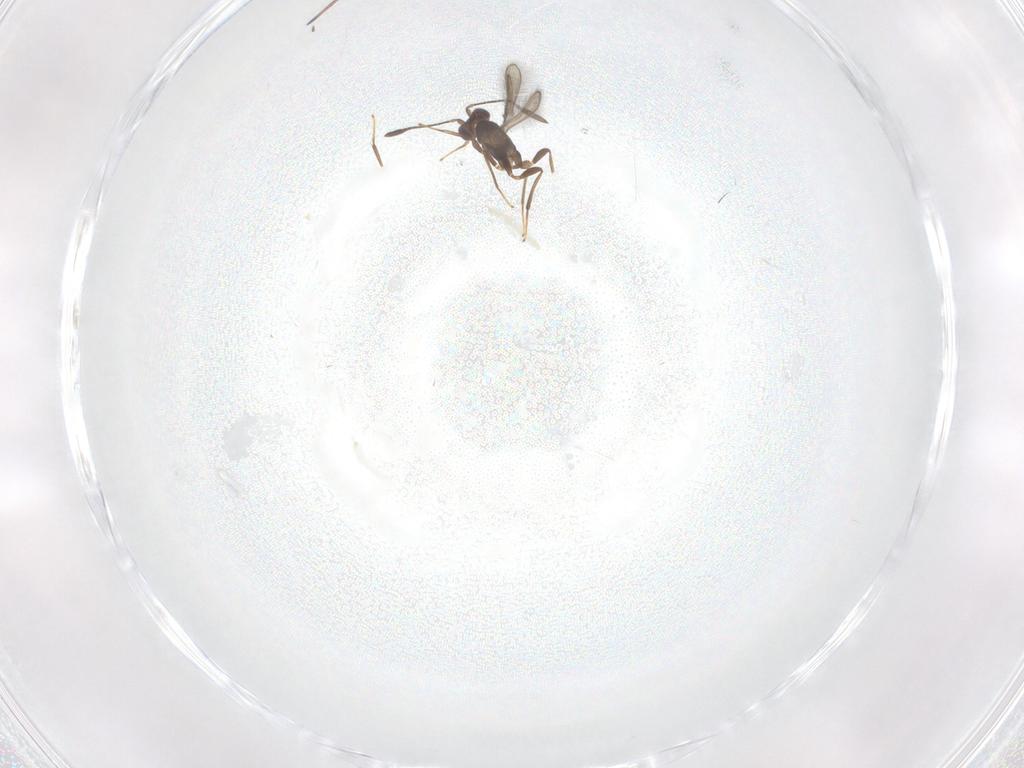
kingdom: Animalia
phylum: Arthropoda
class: Insecta
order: Hymenoptera
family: Mymaridae
